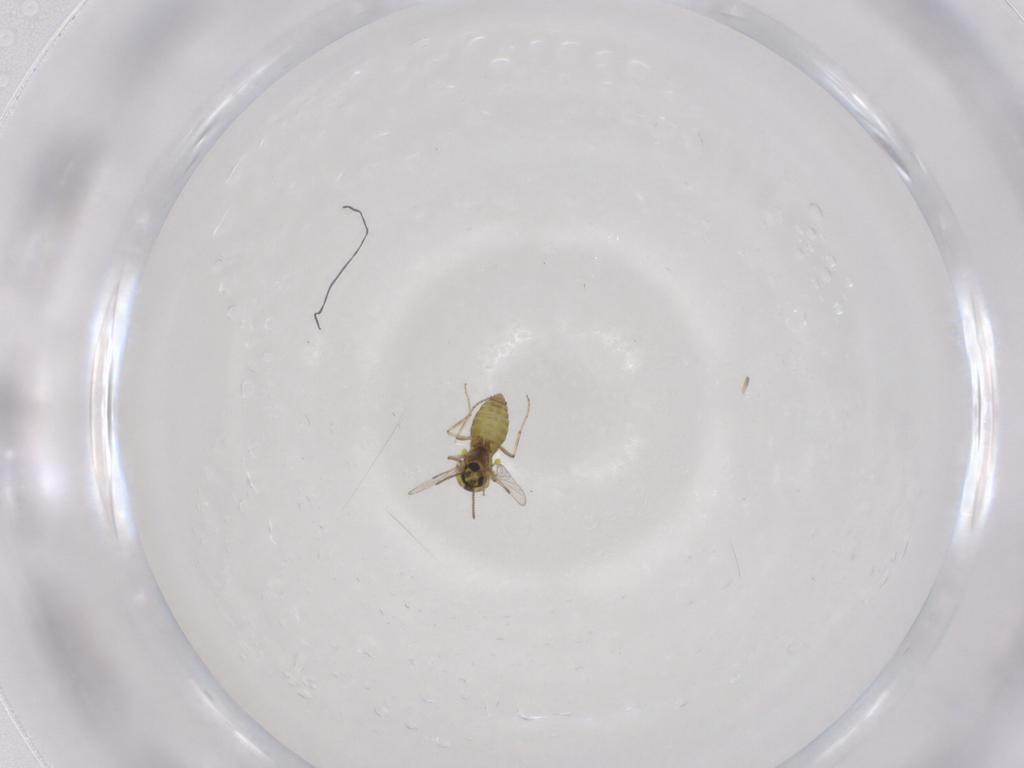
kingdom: Animalia
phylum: Arthropoda
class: Insecta
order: Diptera
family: Ceratopogonidae
